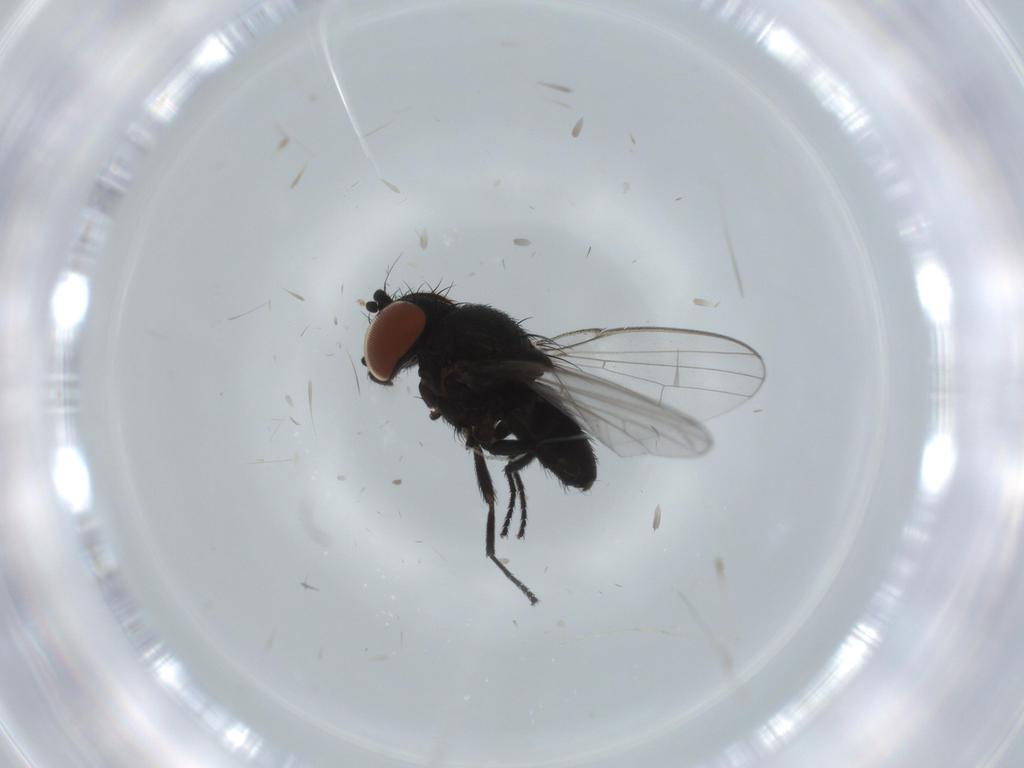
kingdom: Animalia
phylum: Arthropoda
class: Insecta
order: Diptera
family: Milichiidae
